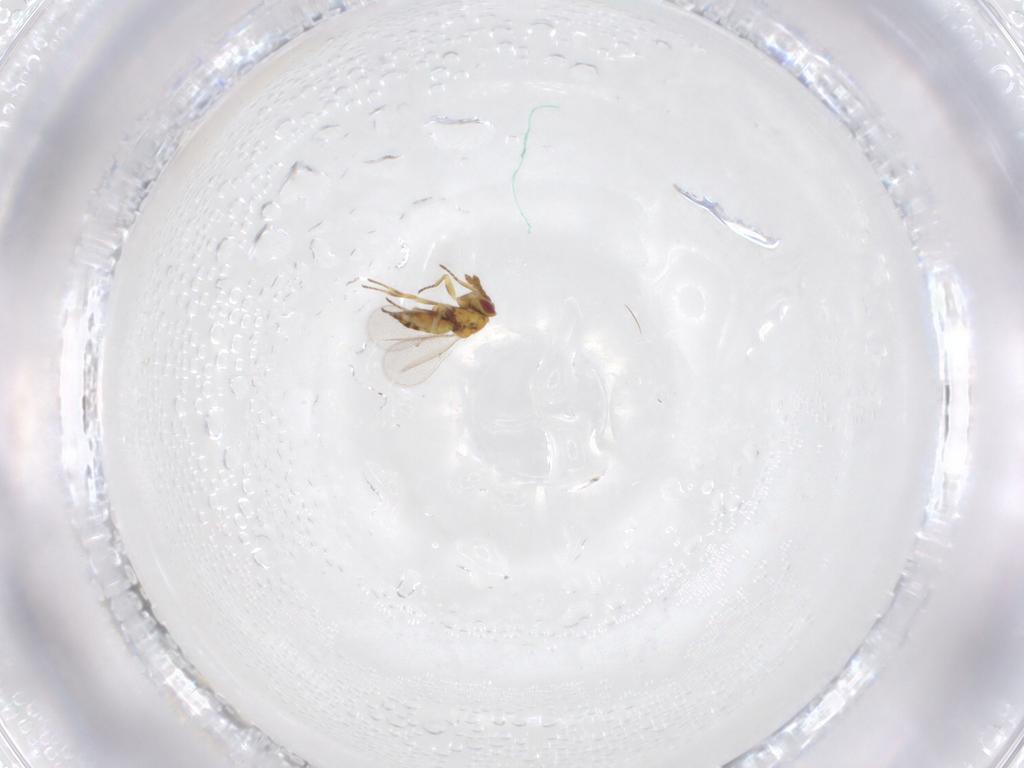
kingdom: Animalia
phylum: Arthropoda
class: Insecta
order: Hymenoptera
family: Eulophidae
